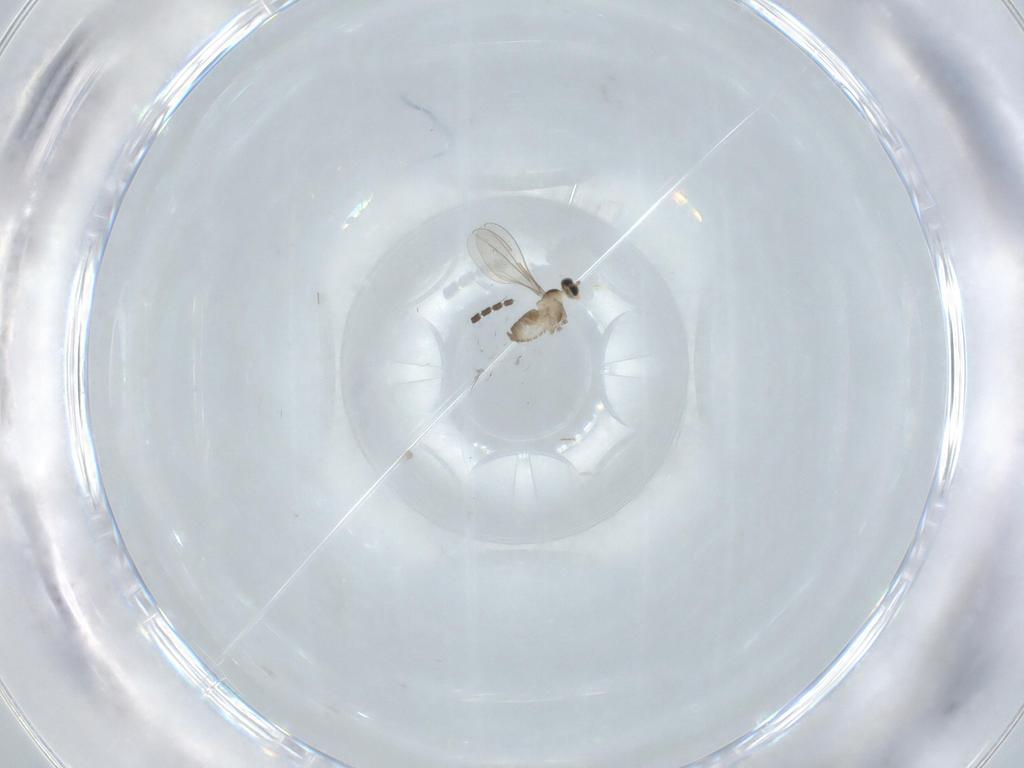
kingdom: Animalia
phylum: Arthropoda
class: Insecta
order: Diptera
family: Cecidomyiidae
